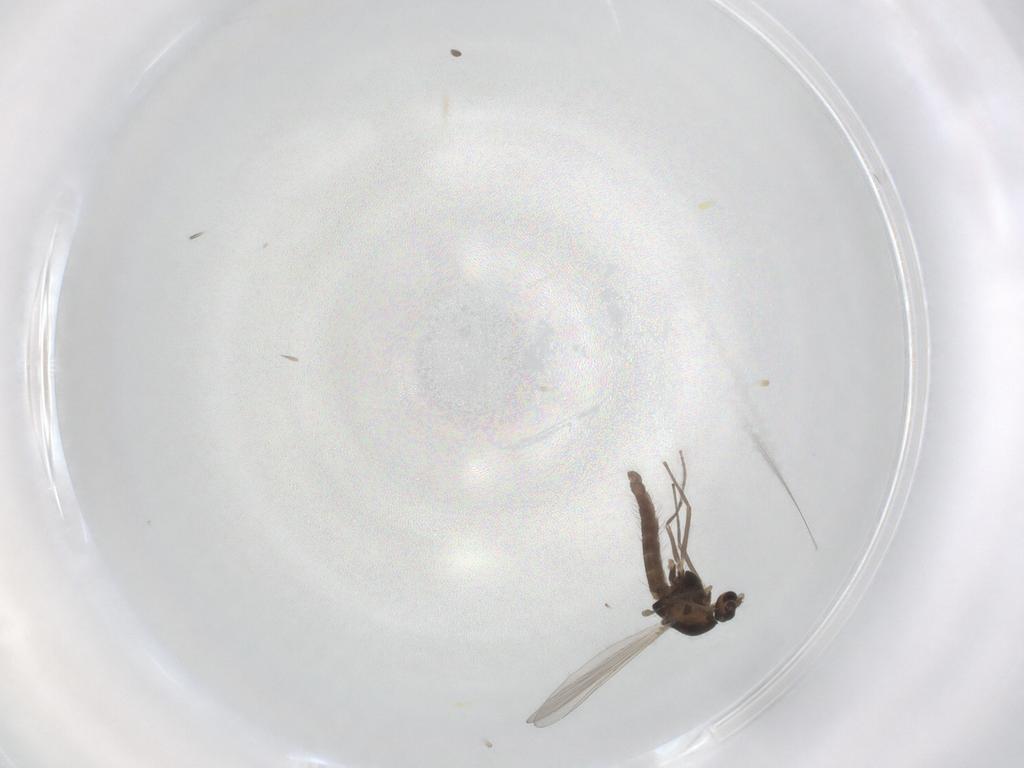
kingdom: Animalia
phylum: Arthropoda
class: Insecta
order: Diptera
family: Chironomidae
